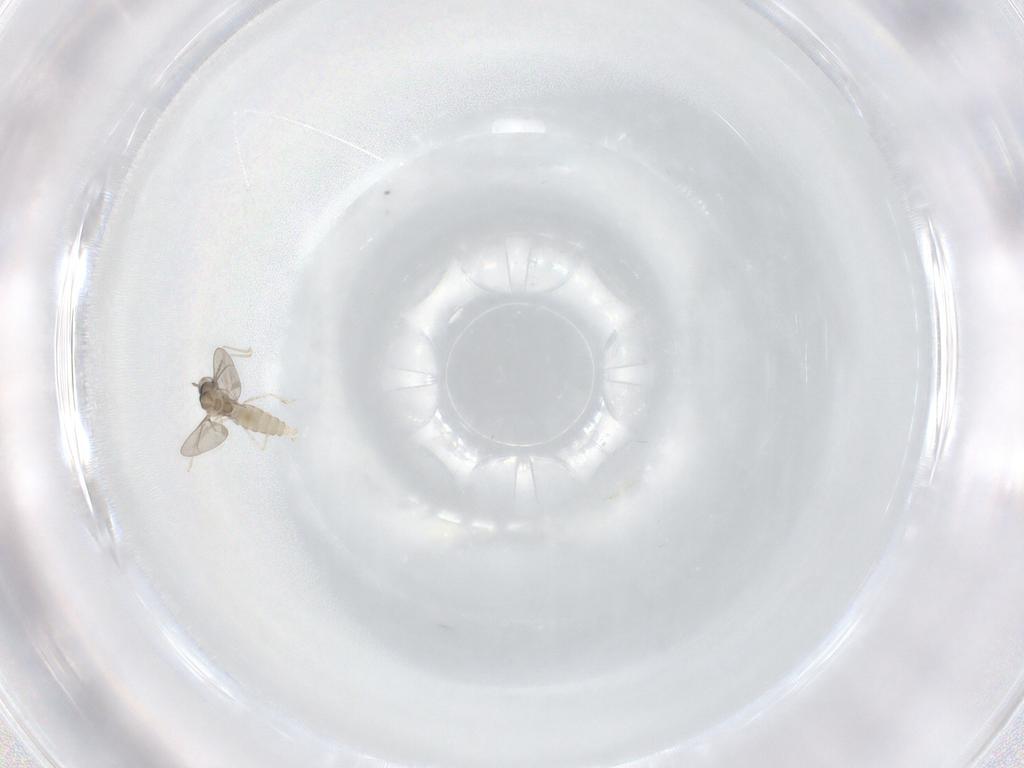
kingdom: Animalia
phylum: Arthropoda
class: Insecta
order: Diptera
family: Cecidomyiidae
